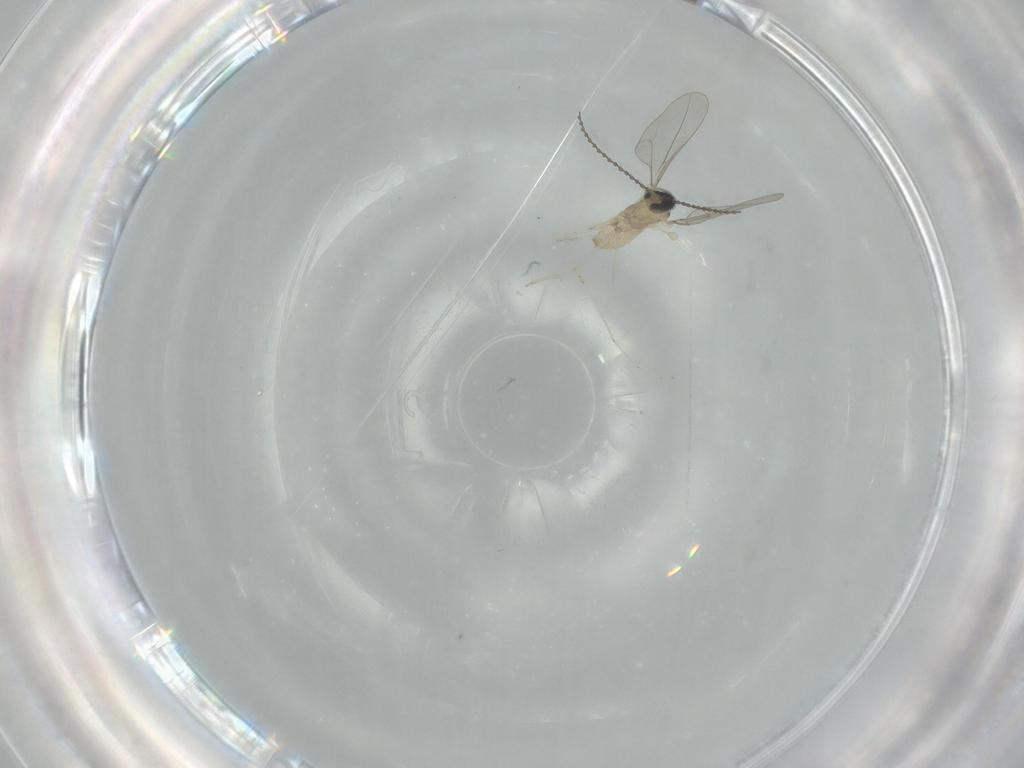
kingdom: Animalia
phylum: Arthropoda
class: Insecta
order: Diptera
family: Cecidomyiidae
